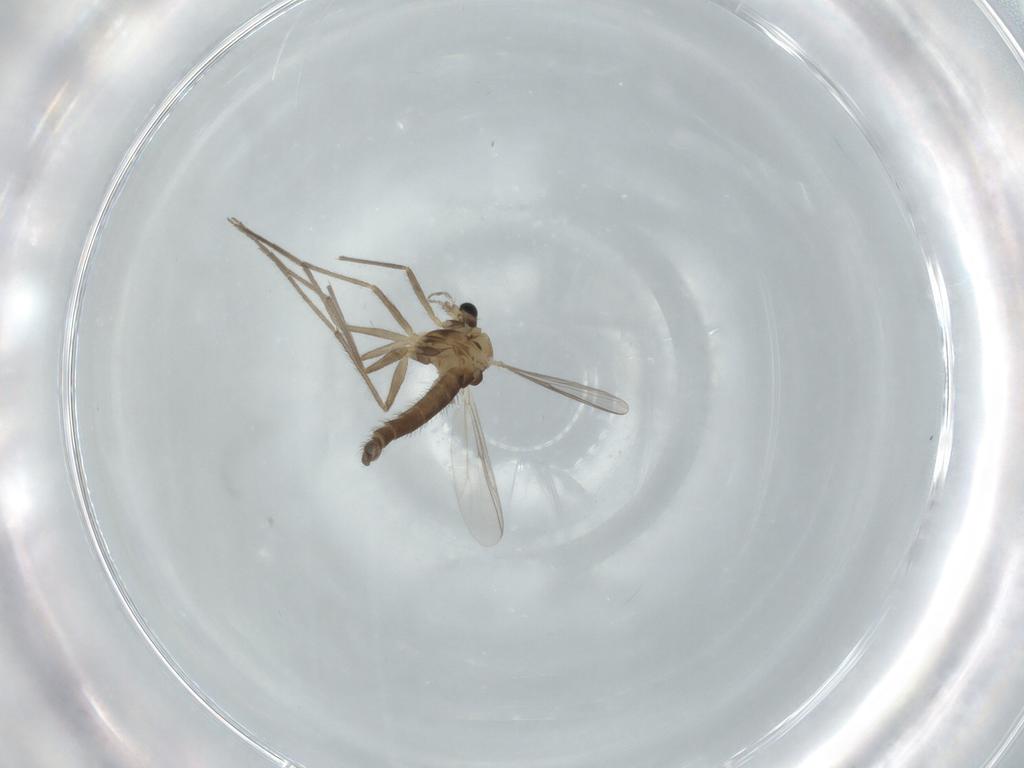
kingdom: Animalia
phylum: Arthropoda
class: Insecta
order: Diptera
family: Chironomidae
